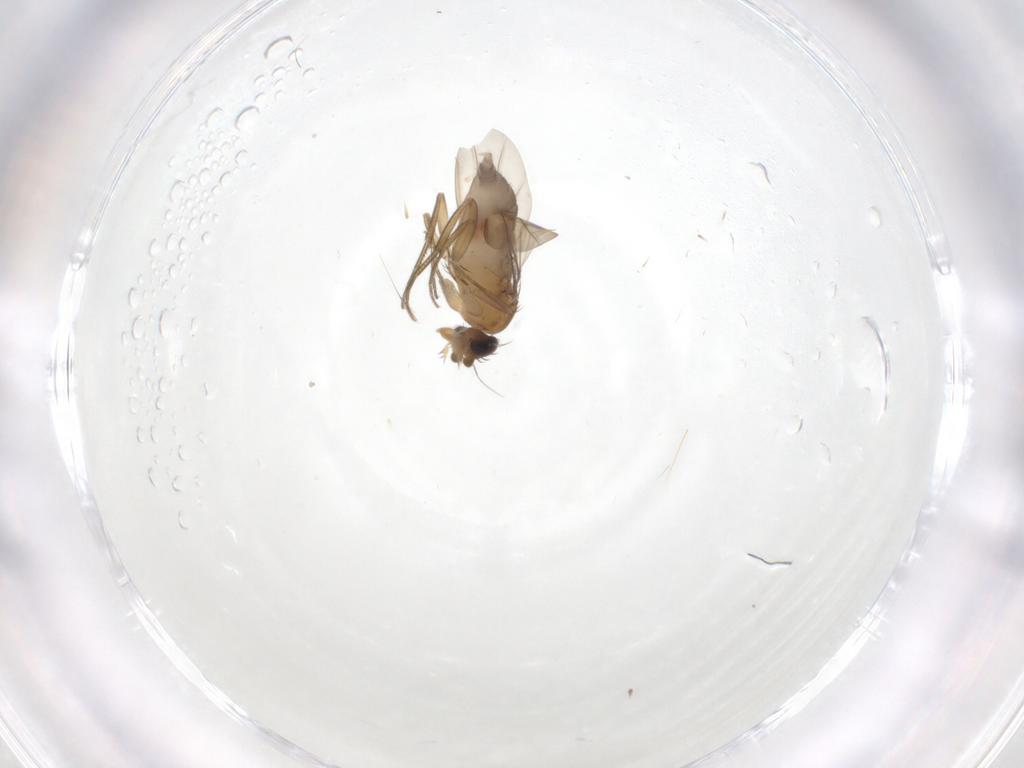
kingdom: Animalia
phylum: Arthropoda
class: Insecta
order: Diptera
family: Phoridae
